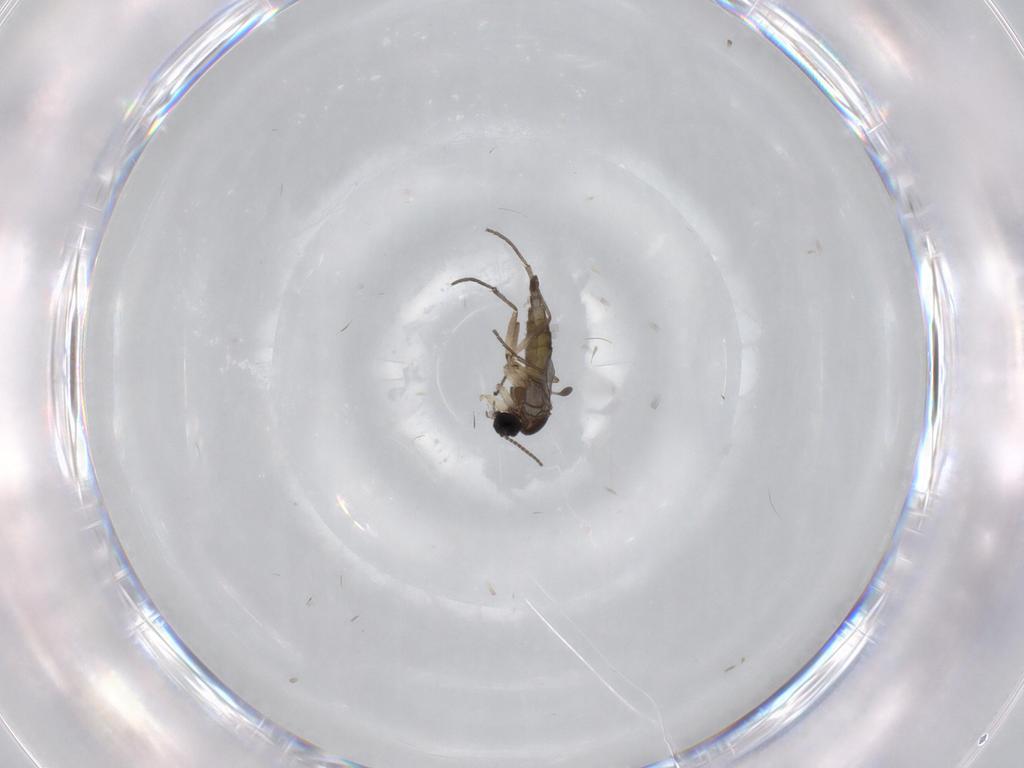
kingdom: Animalia
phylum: Arthropoda
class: Insecta
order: Diptera
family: Sciaridae
